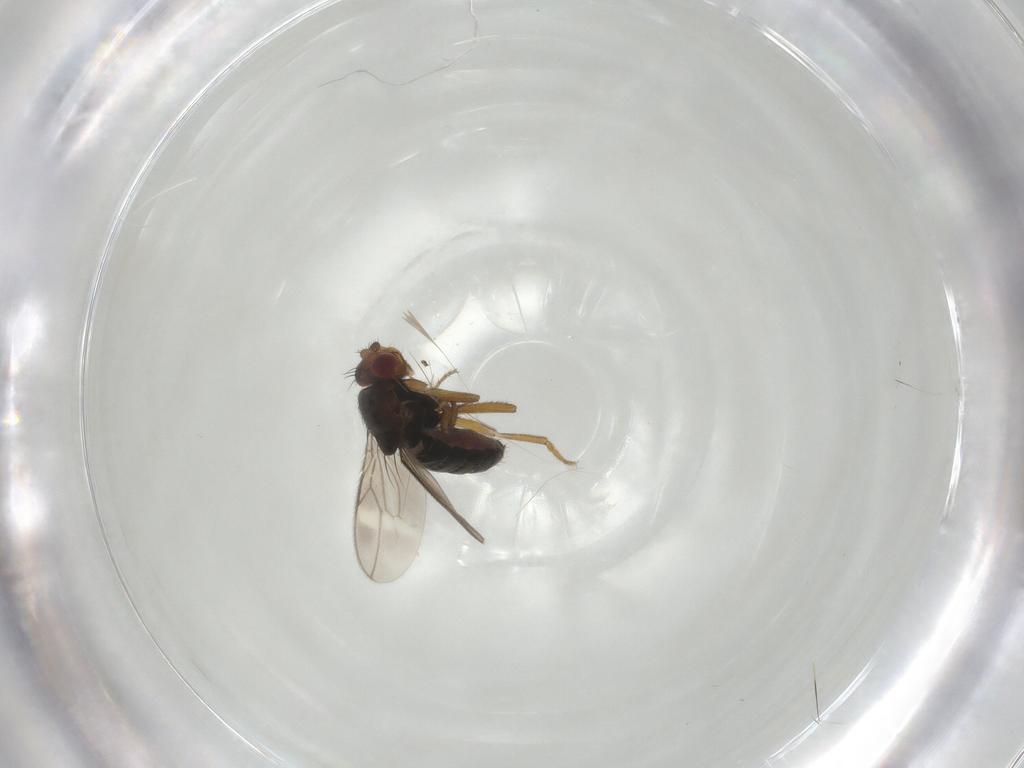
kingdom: Animalia
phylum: Arthropoda
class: Insecta
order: Diptera
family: Sphaeroceridae
